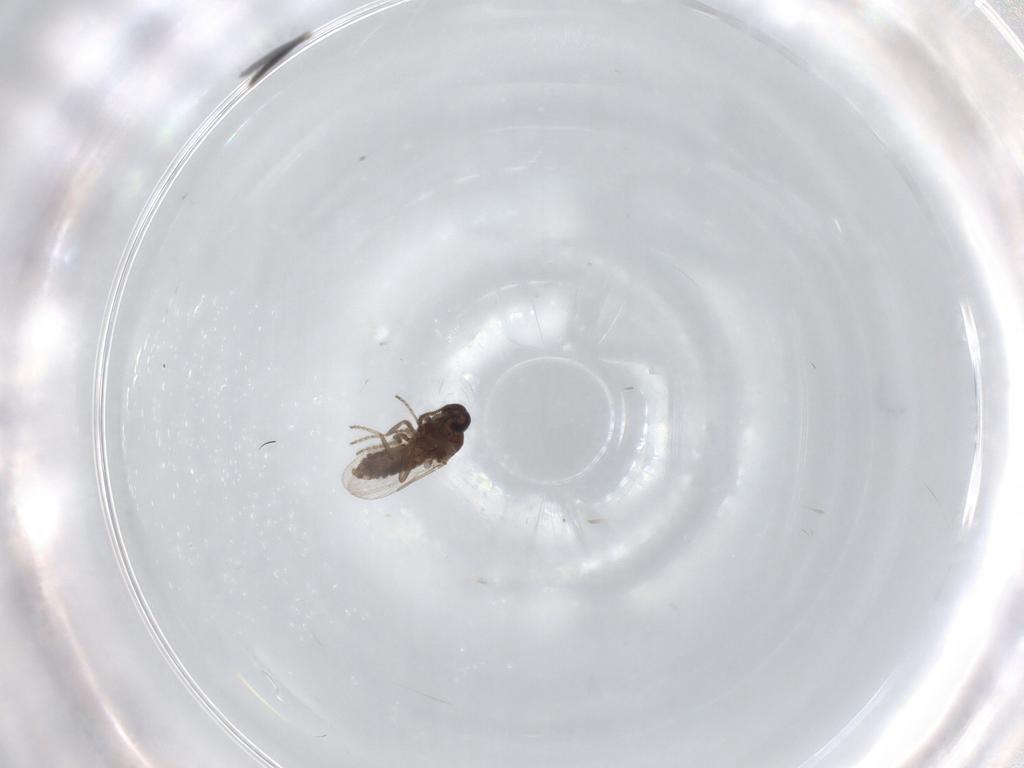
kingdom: Animalia
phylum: Arthropoda
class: Insecta
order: Diptera
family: Ceratopogonidae
